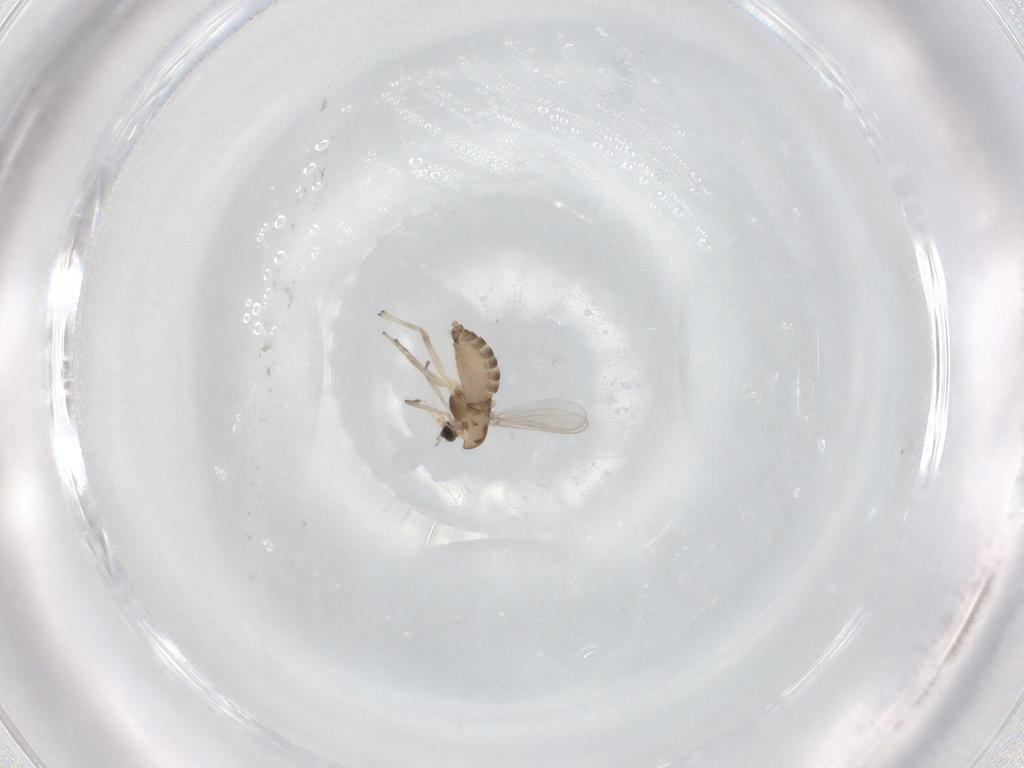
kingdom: Animalia
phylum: Arthropoda
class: Insecta
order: Diptera
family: Chironomidae
